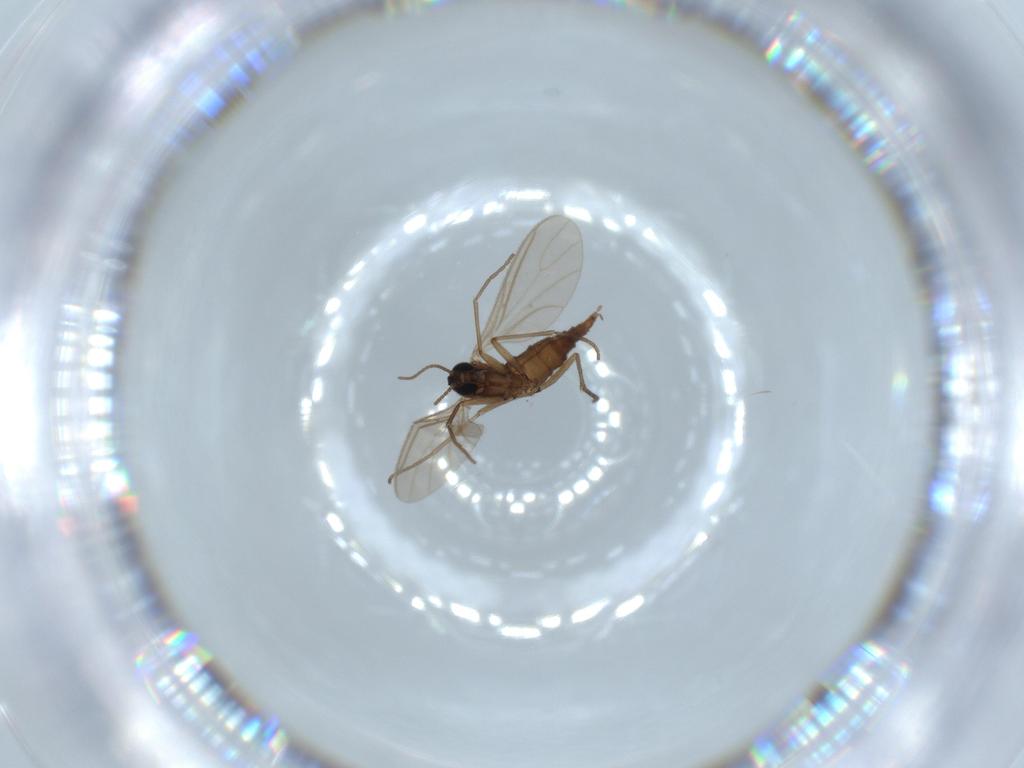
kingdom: Animalia
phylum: Arthropoda
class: Insecta
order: Diptera
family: Sciaridae
